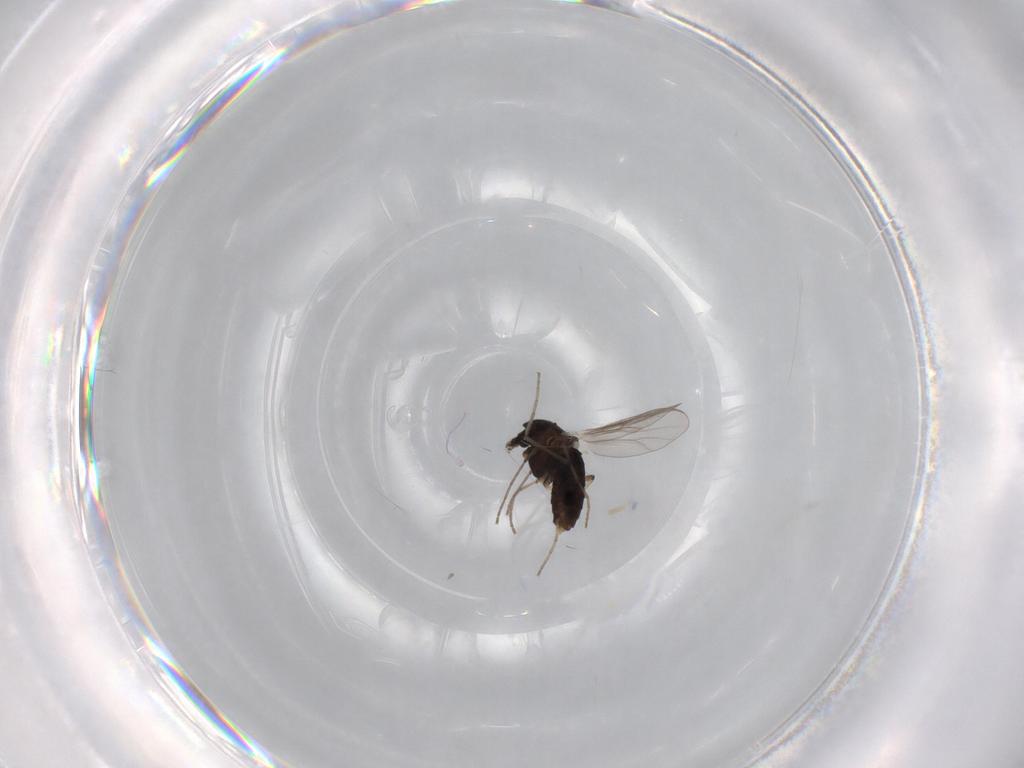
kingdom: Animalia
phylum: Arthropoda
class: Insecta
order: Diptera
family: Chironomidae
